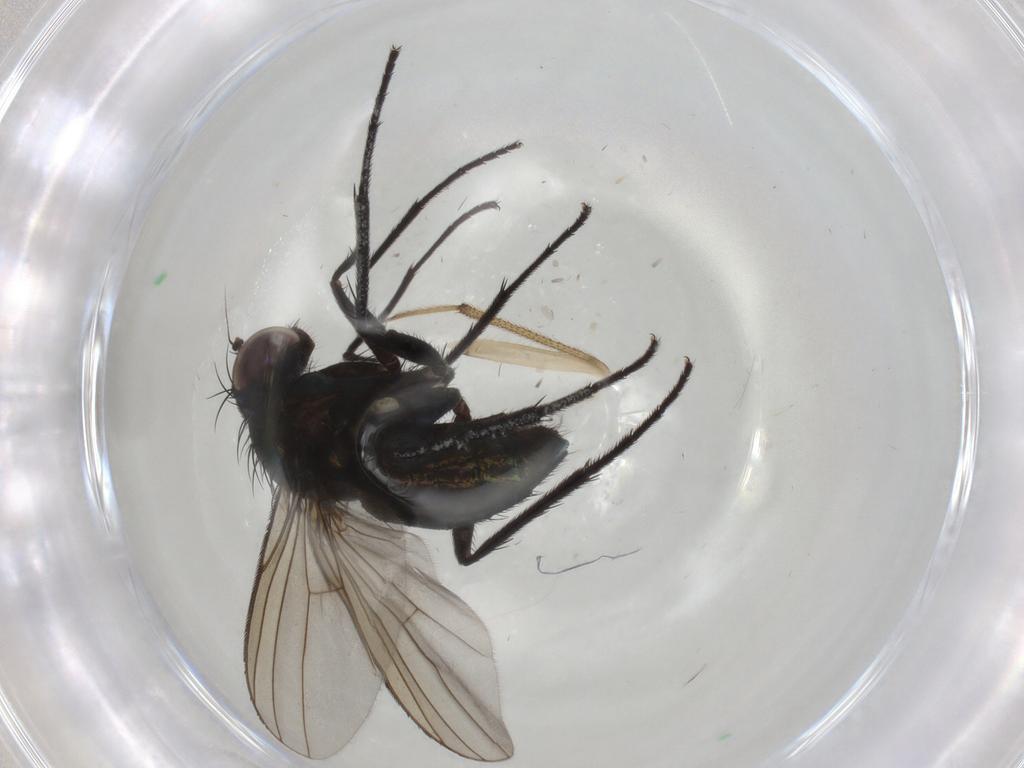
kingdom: Animalia
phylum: Arthropoda
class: Insecta
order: Diptera
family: Dolichopodidae
